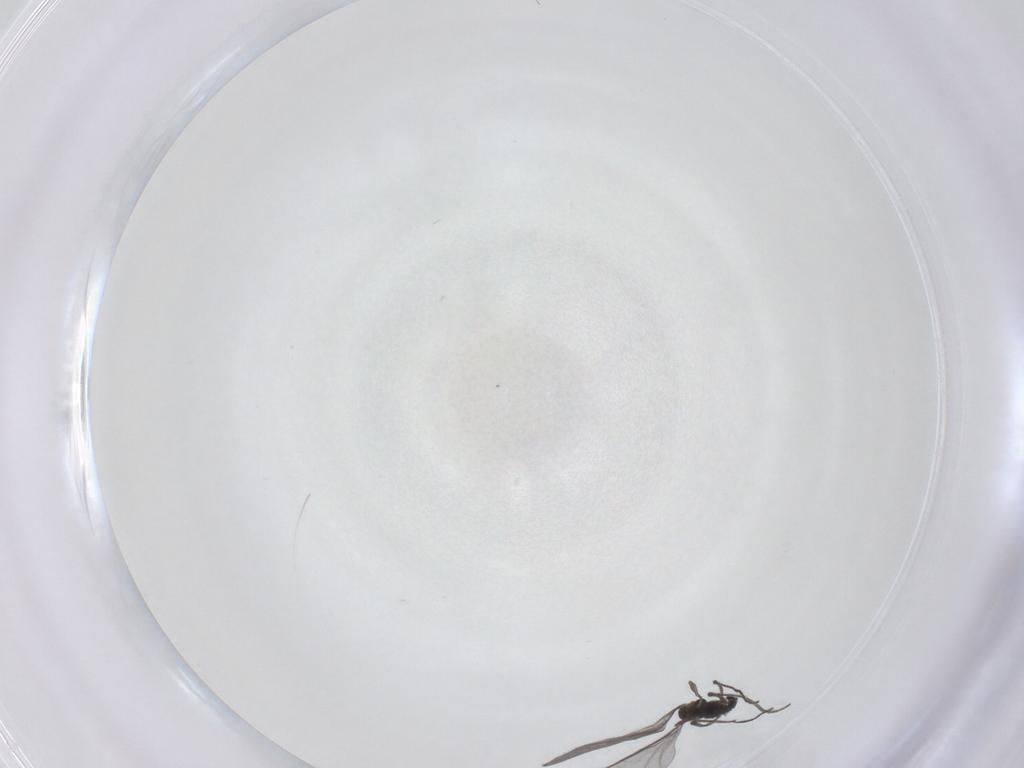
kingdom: Animalia
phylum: Arthropoda
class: Insecta
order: Diptera
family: Sciaridae
